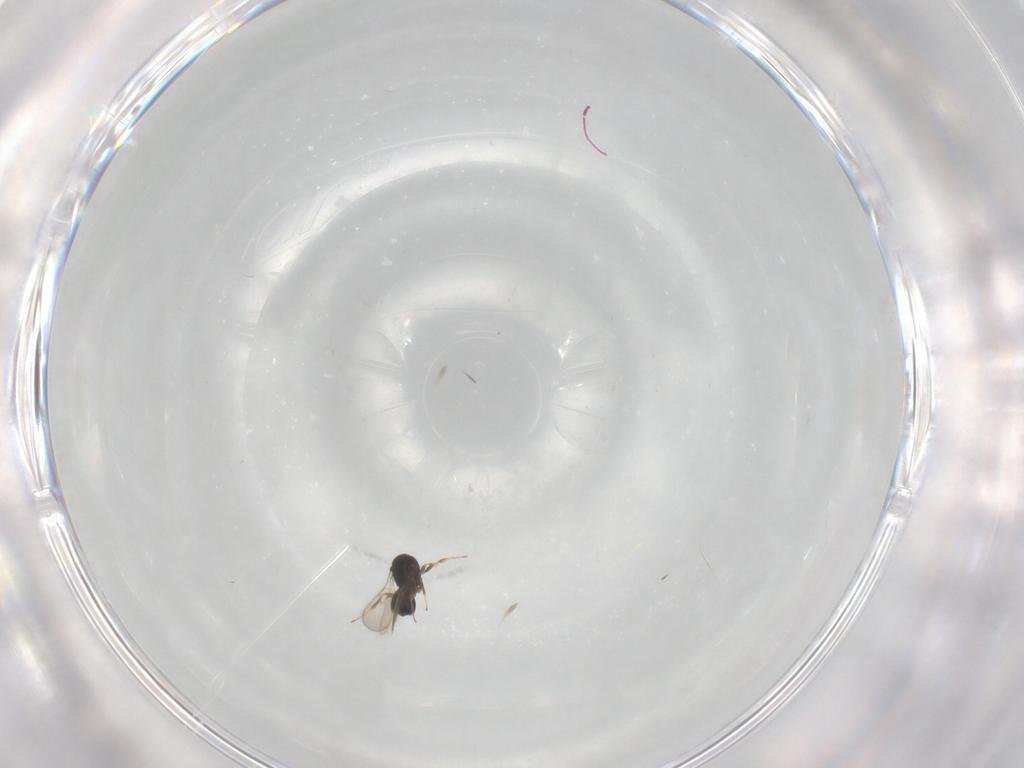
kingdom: Animalia
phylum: Arthropoda
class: Insecta
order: Hymenoptera
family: Scelionidae
